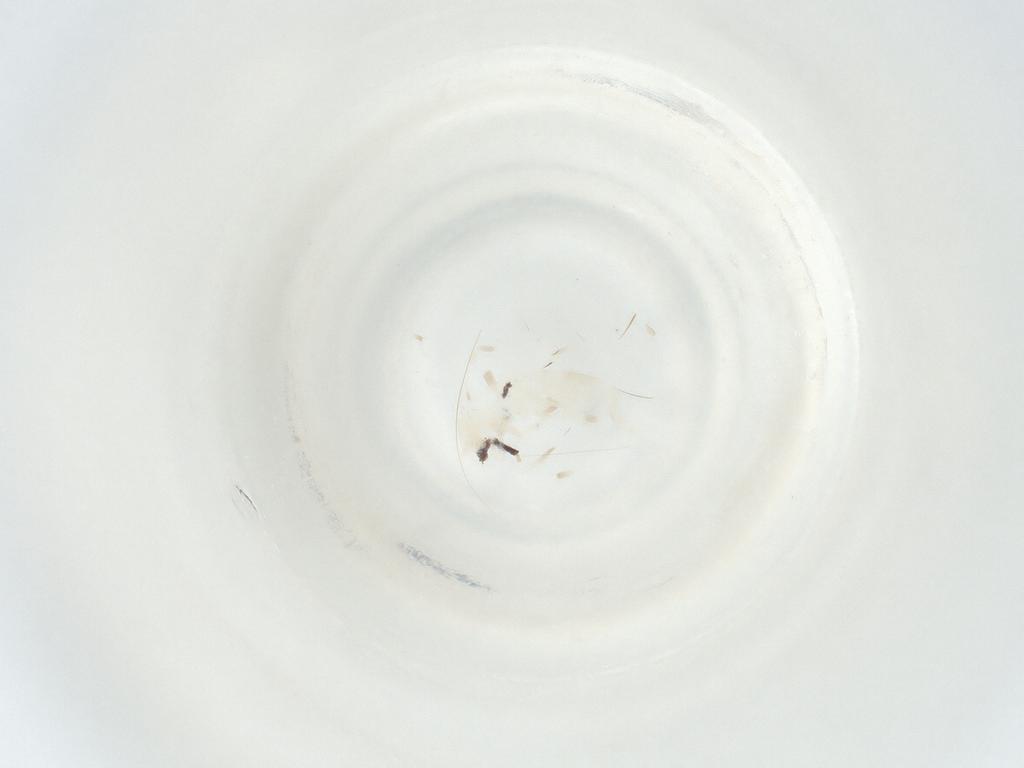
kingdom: Animalia
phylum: Arthropoda
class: Collembola
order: Entomobryomorpha
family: Entomobryidae
